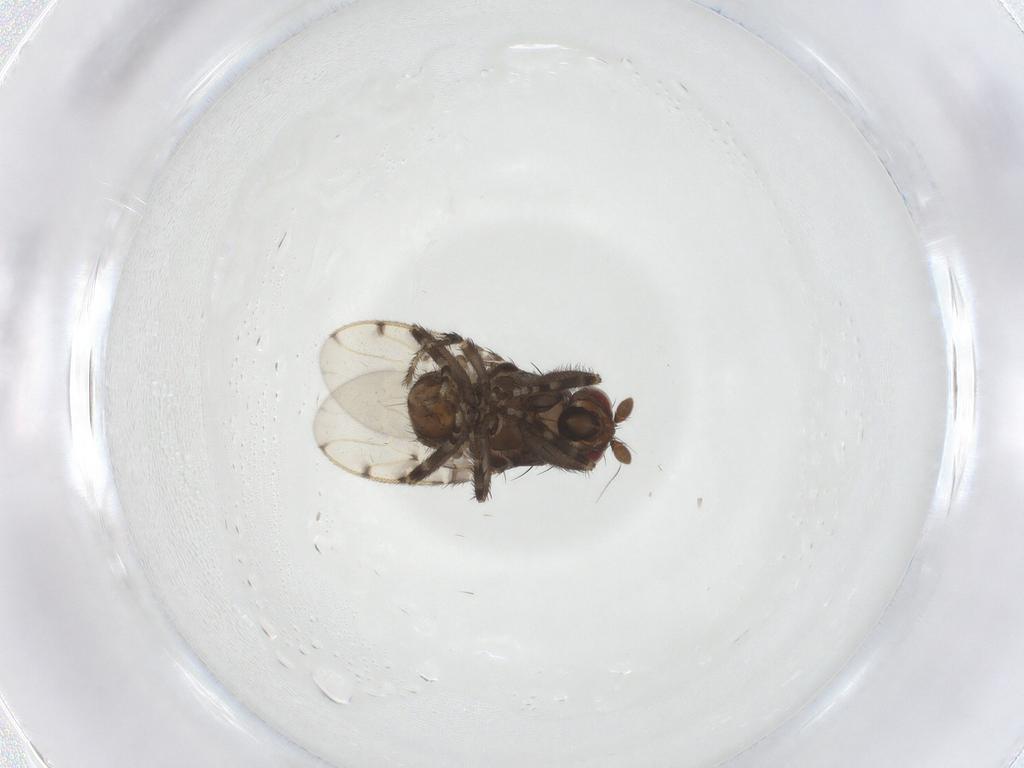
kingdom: Animalia
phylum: Arthropoda
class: Insecta
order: Diptera
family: Sphaeroceridae
